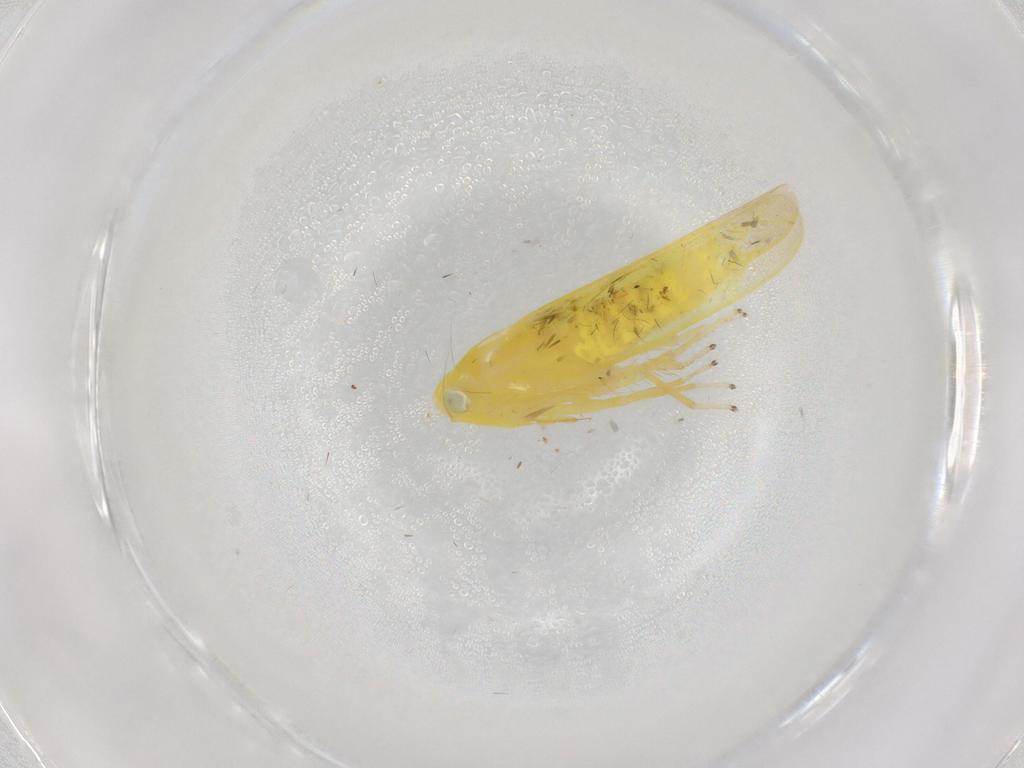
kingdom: Animalia
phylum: Arthropoda
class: Insecta
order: Hemiptera
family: Cicadellidae
